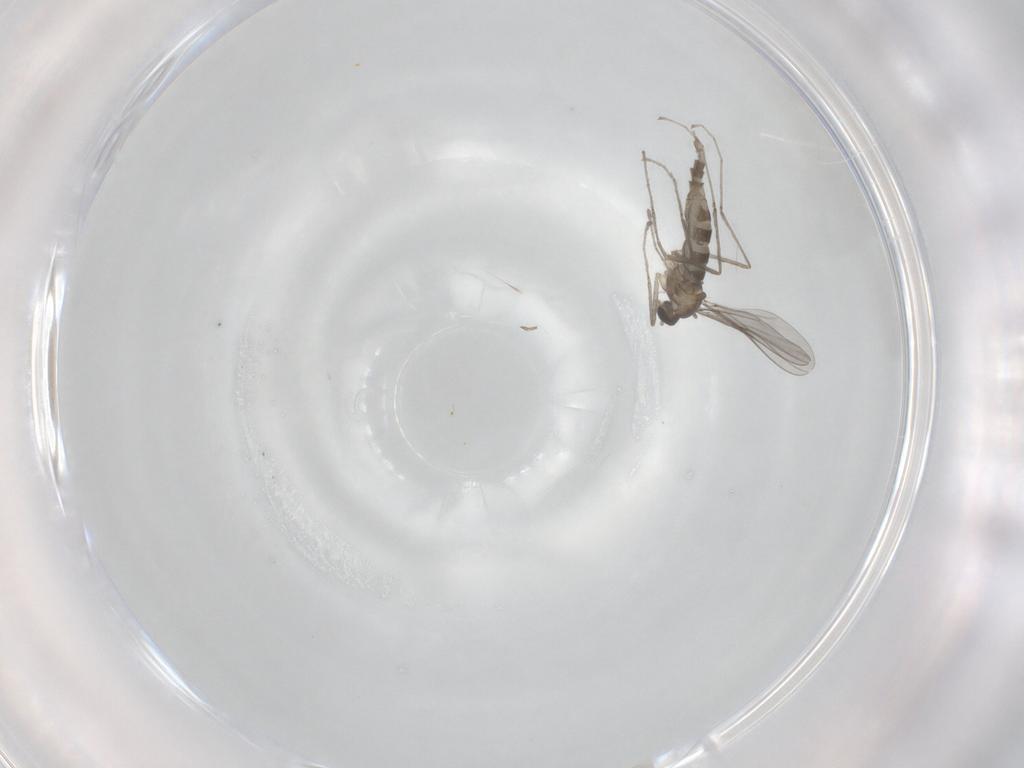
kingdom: Animalia
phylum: Arthropoda
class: Insecta
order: Diptera
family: Phoridae
